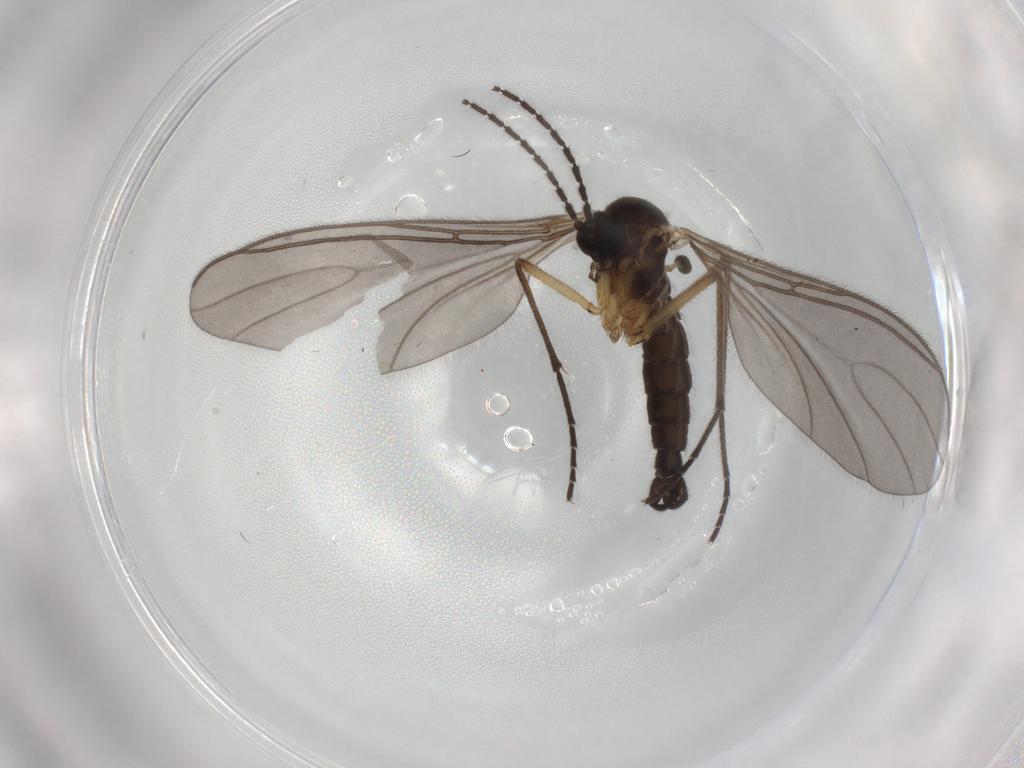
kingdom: Animalia
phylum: Arthropoda
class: Insecta
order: Diptera
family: Sciaridae
